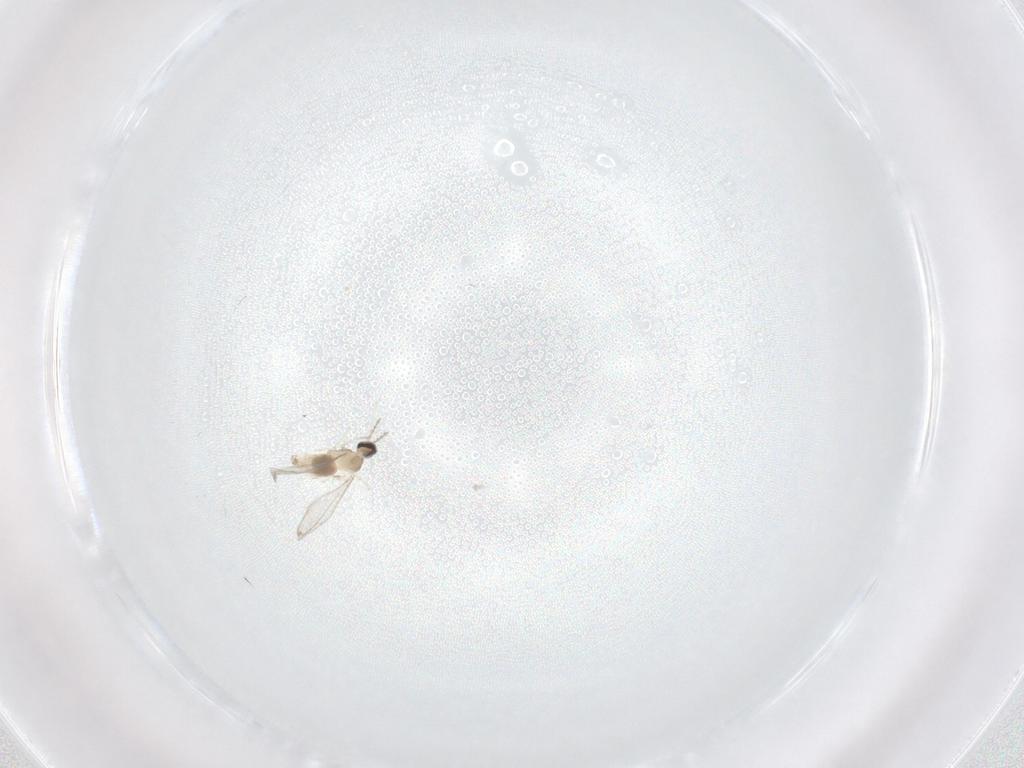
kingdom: Animalia
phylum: Arthropoda
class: Insecta
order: Diptera
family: Cecidomyiidae
